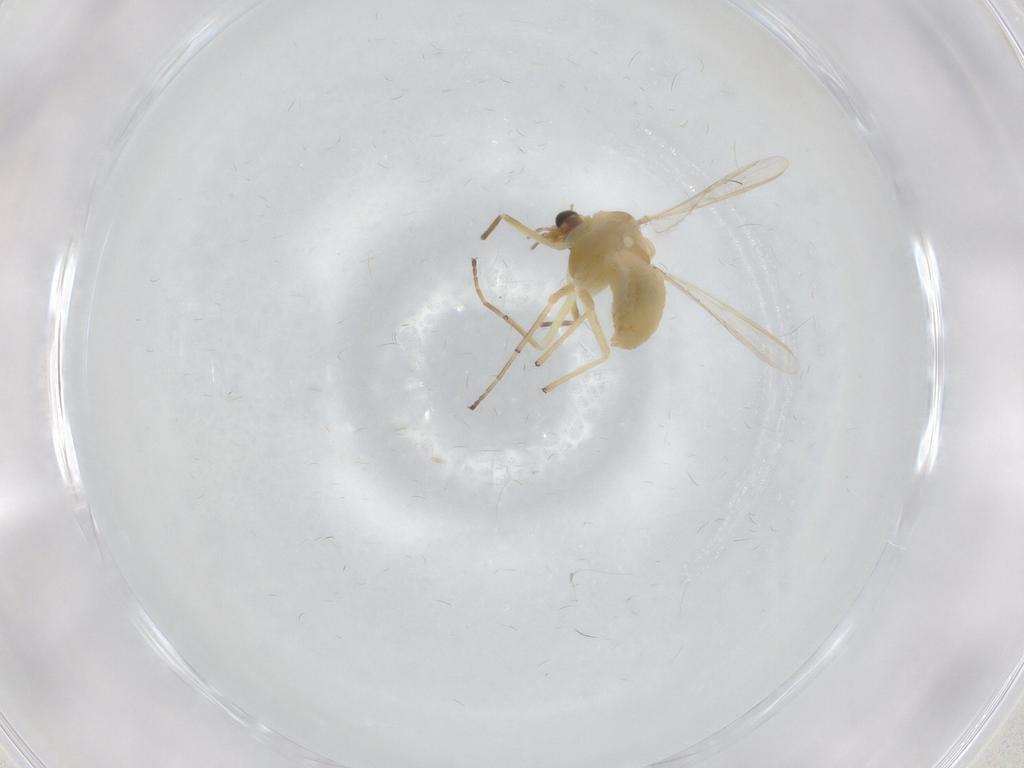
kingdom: Animalia
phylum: Arthropoda
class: Insecta
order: Diptera
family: Chironomidae
